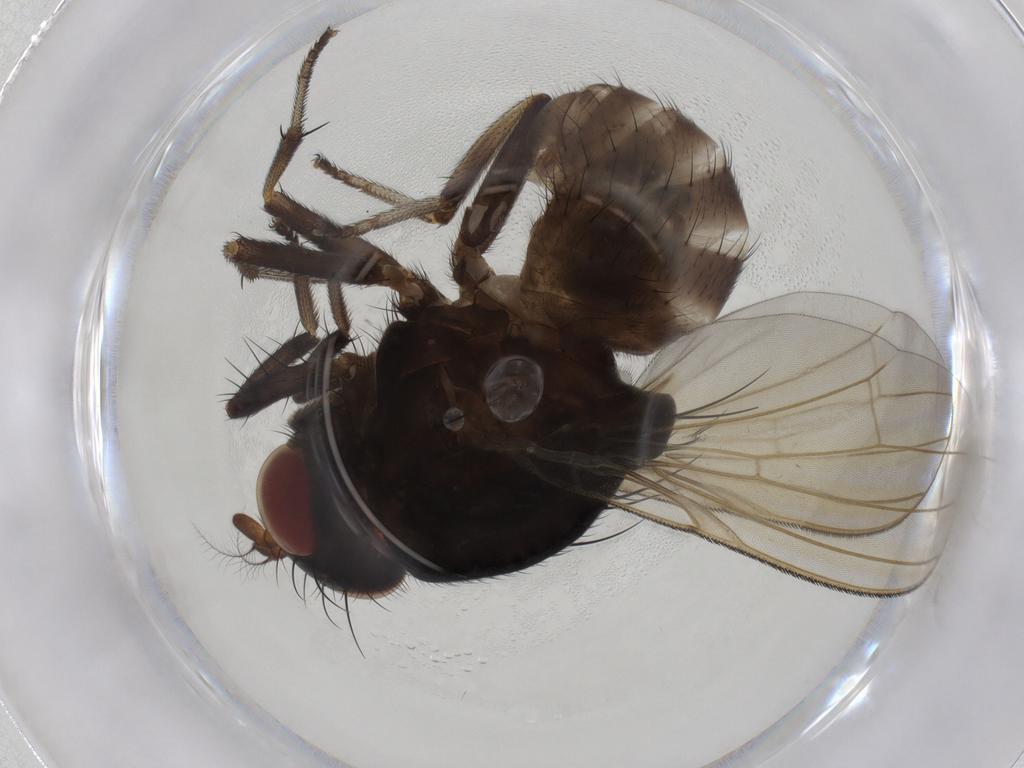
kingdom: Animalia
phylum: Arthropoda
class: Insecta
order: Diptera
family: Lauxaniidae
